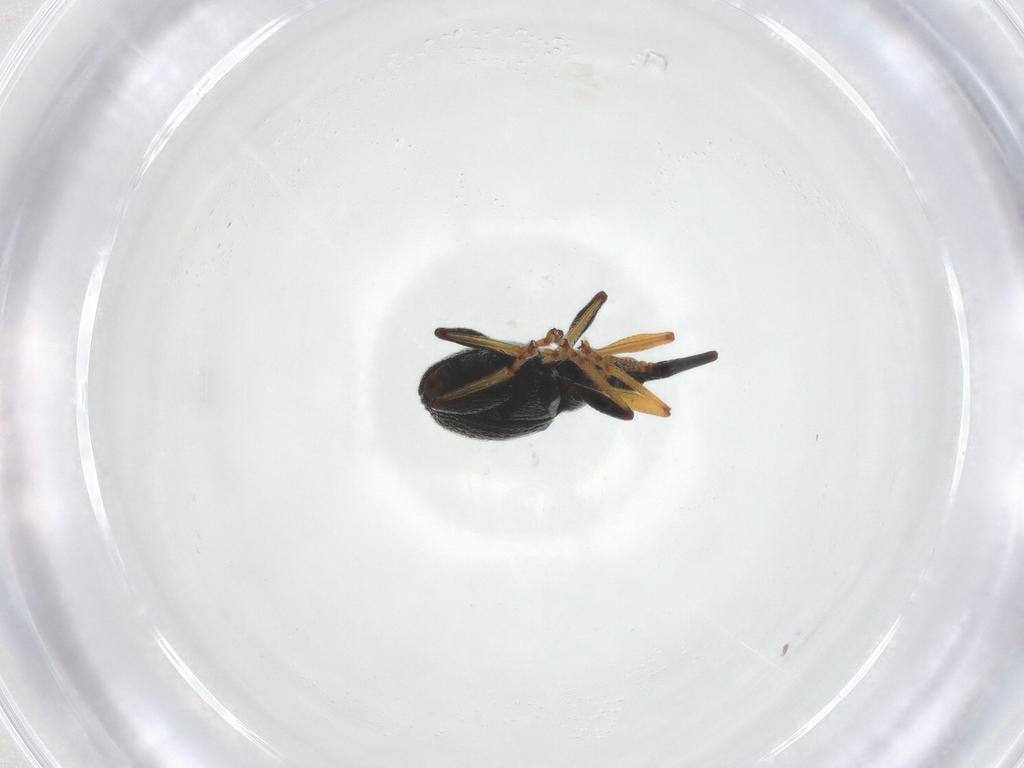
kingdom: Animalia
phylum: Arthropoda
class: Insecta
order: Coleoptera
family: Brentidae
